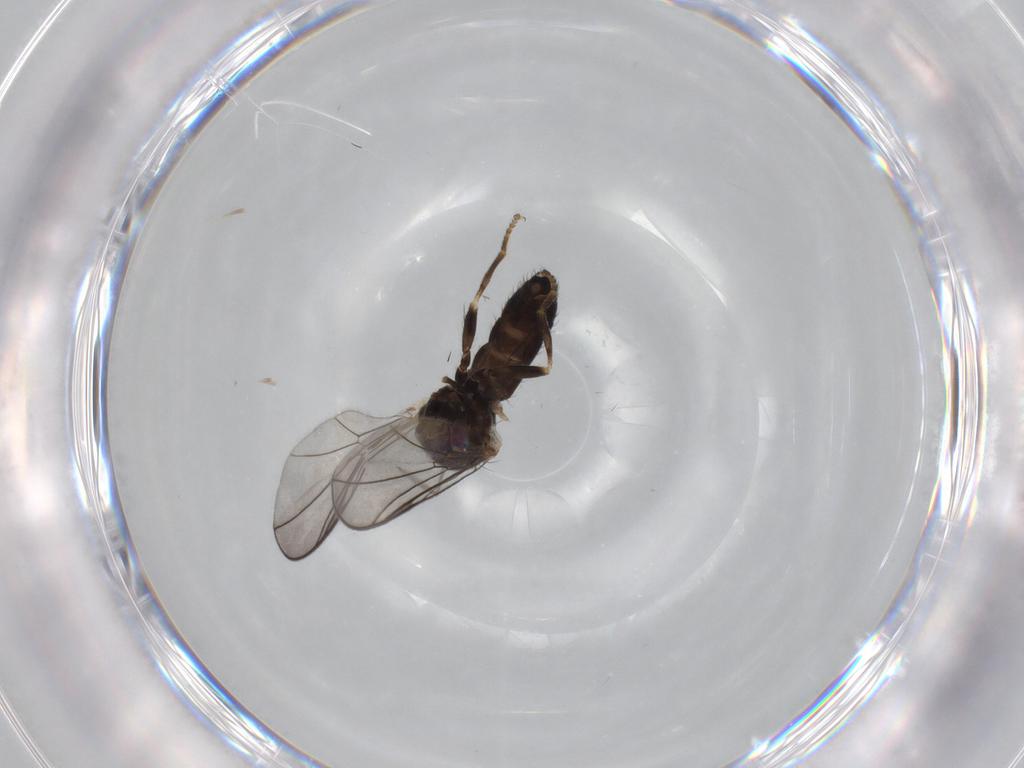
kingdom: Animalia
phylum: Arthropoda
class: Insecta
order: Diptera
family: Pipunculidae
